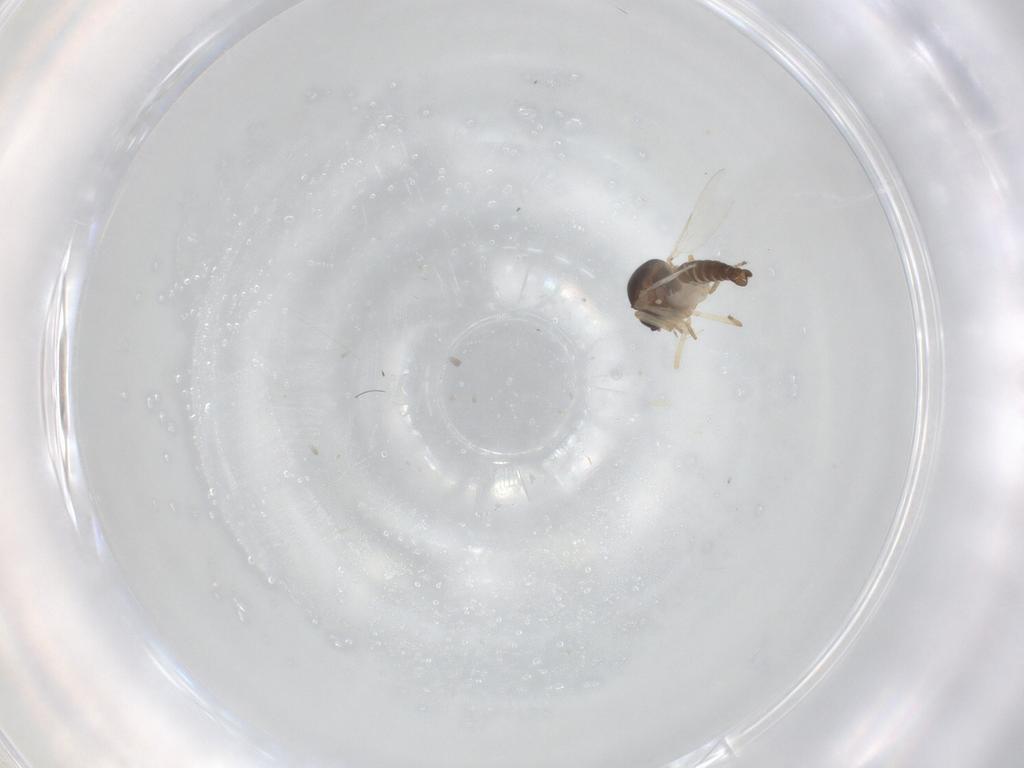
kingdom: Animalia
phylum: Arthropoda
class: Insecta
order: Diptera
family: Ceratopogonidae
